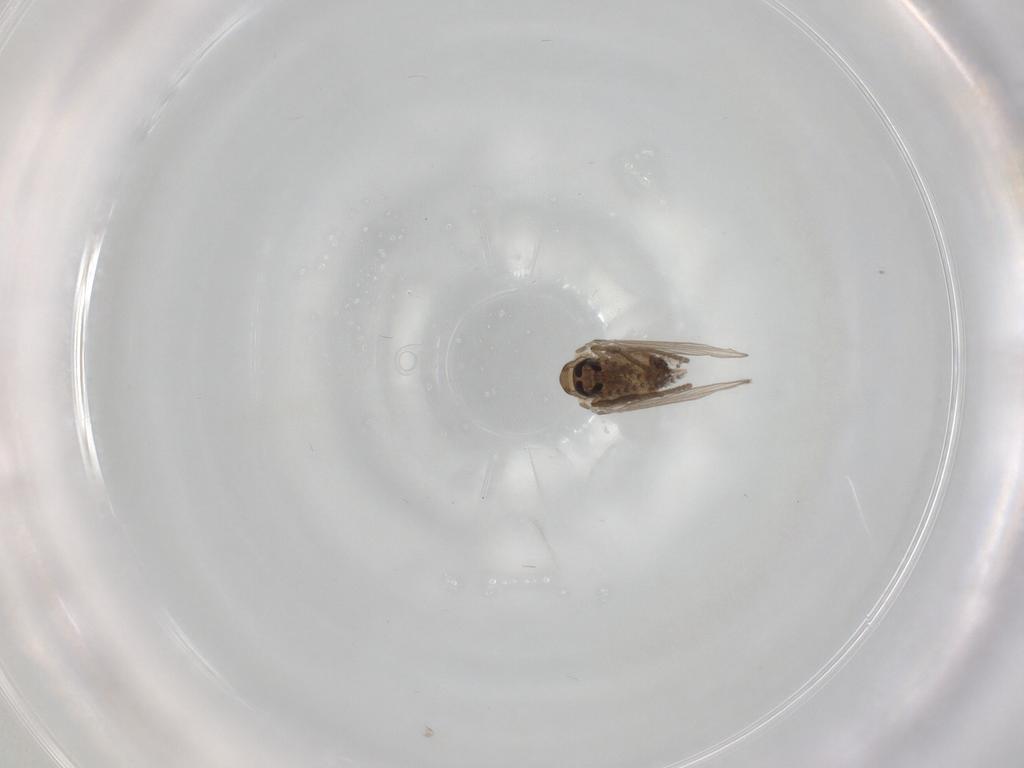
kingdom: Animalia
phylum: Arthropoda
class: Insecta
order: Diptera
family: Psychodidae
